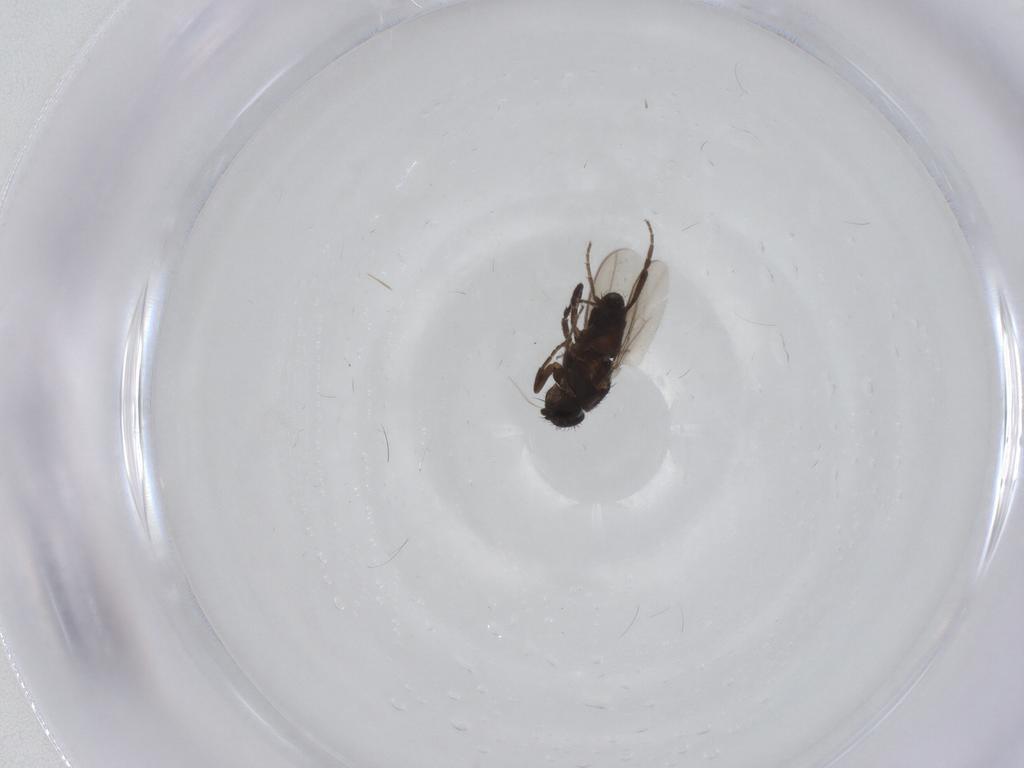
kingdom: Animalia
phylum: Arthropoda
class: Insecta
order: Diptera
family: Sphaeroceridae
